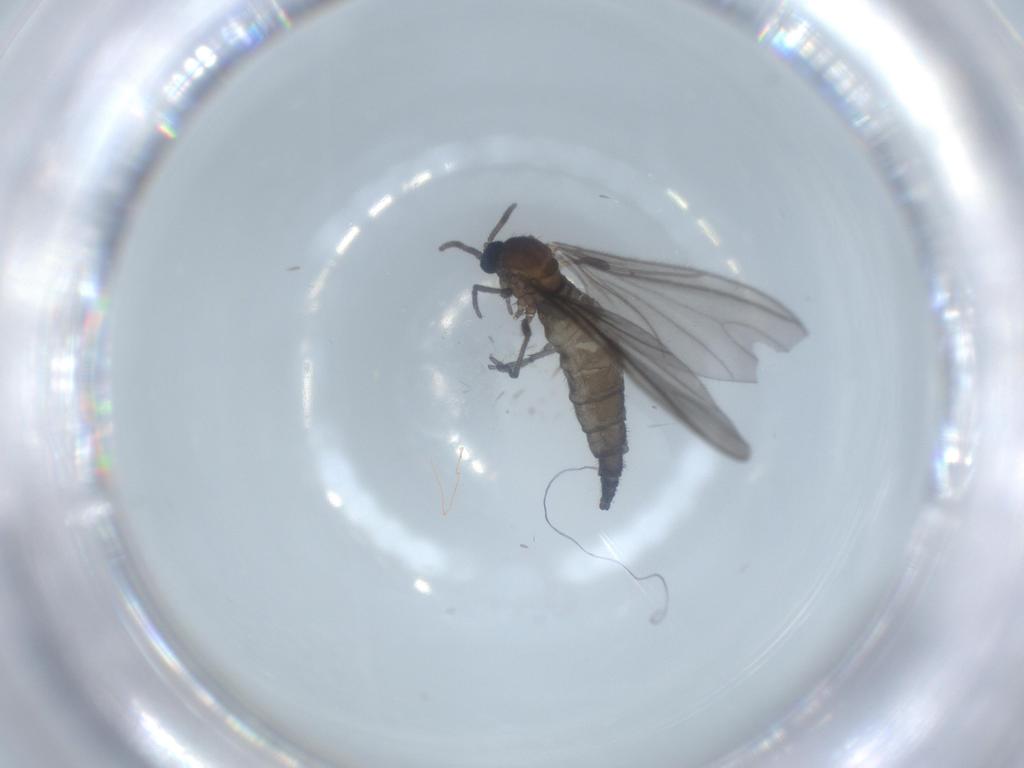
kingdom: Animalia
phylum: Arthropoda
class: Insecta
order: Diptera
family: Sciaridae
